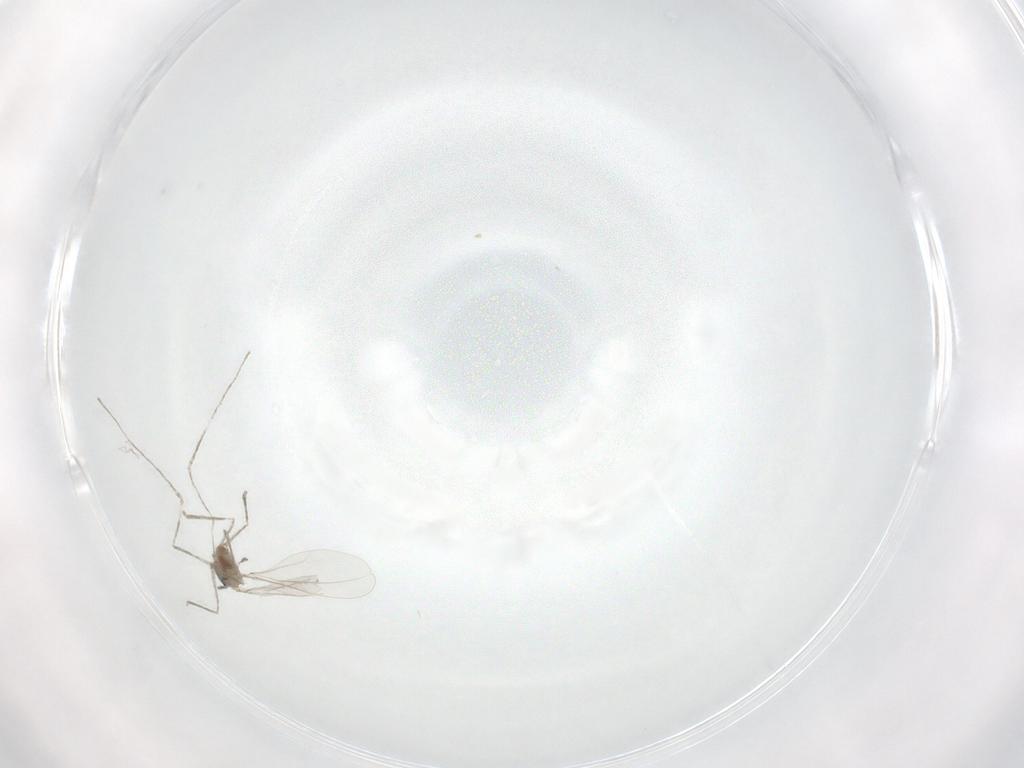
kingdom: Animalia
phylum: Arthropoda
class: Insecta
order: Diptera
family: Cecidomyiidae
